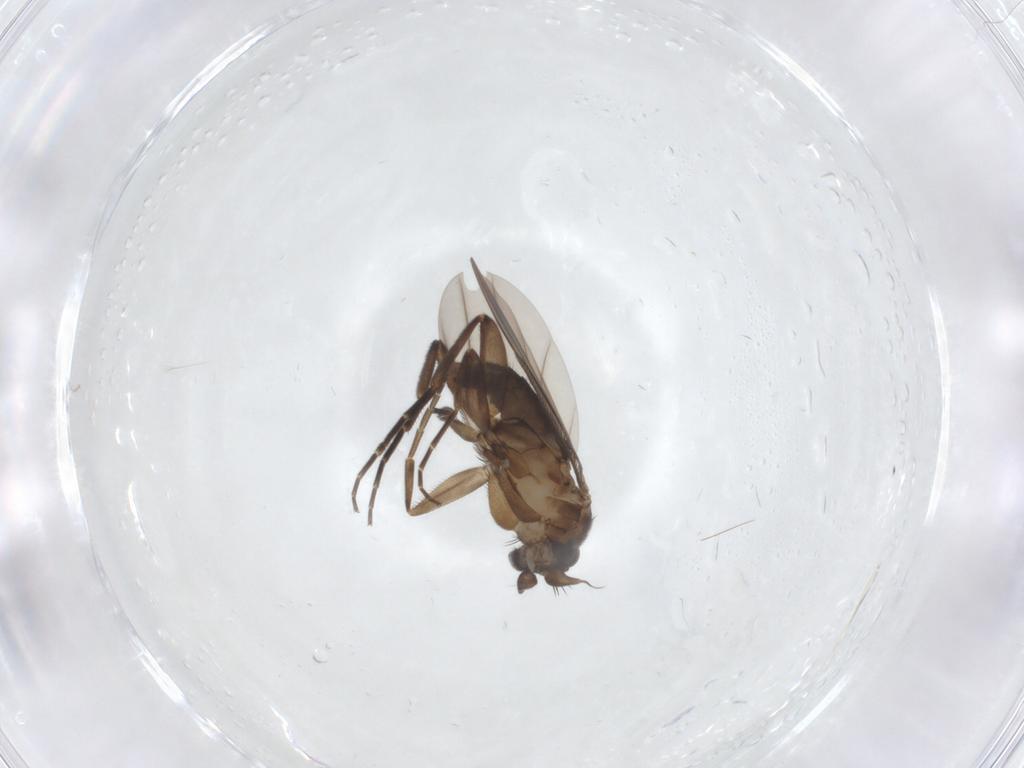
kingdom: Animalia
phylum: Arthropoda
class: Insecta
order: Diptera
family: Phoridae
